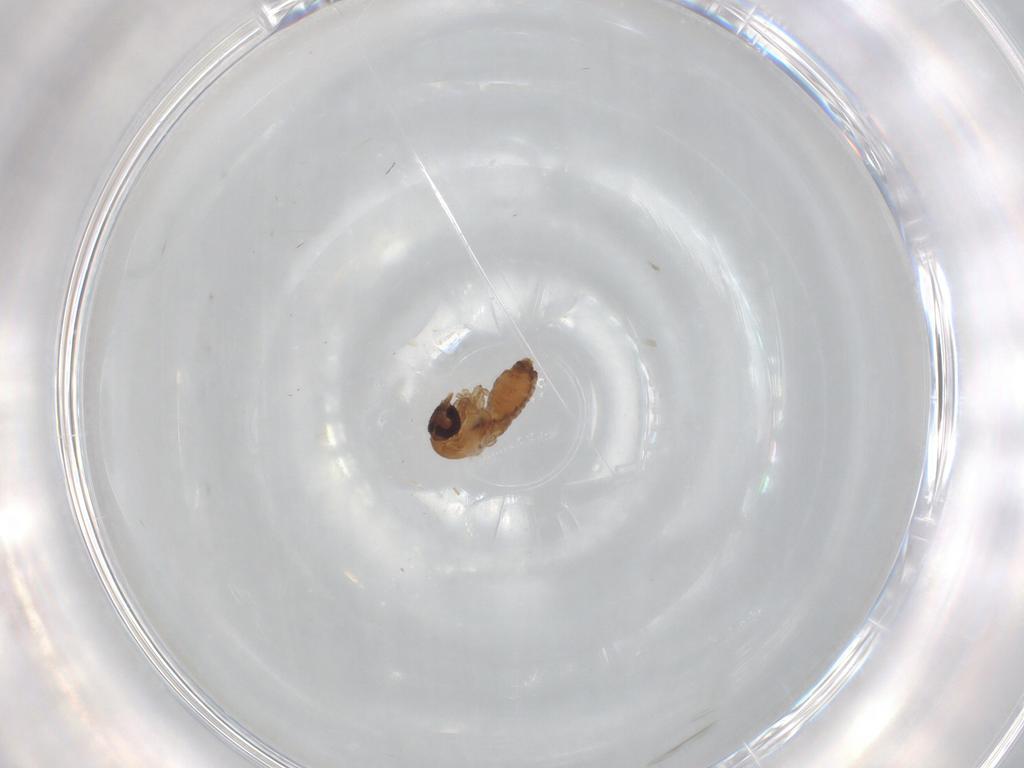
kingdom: Animalia
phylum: Arthropoda
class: Insecta
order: Diptera
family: Psychodidae
